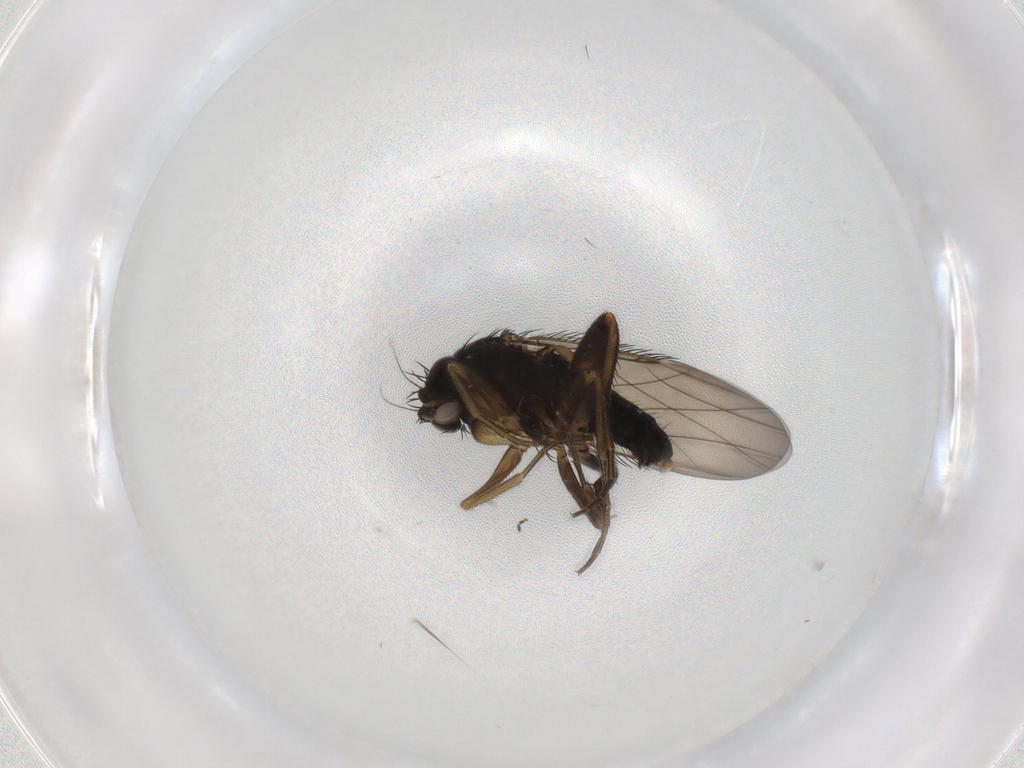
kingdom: Animalia
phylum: Arthropoda
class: Insecta
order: Diptera
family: Phoridae
